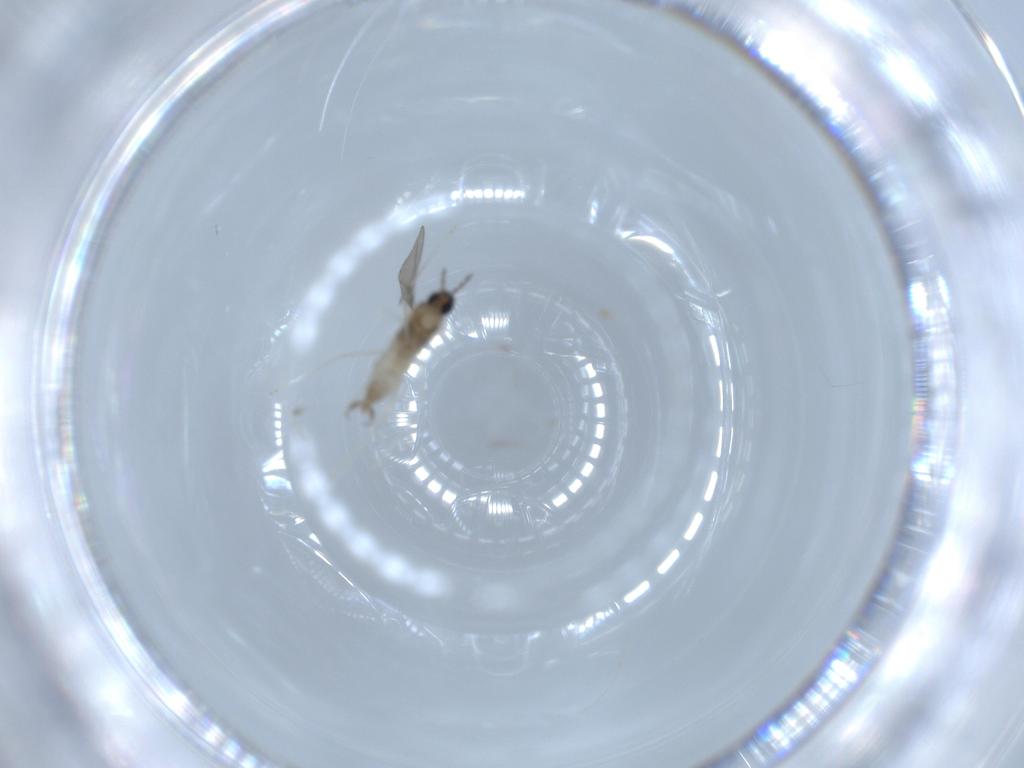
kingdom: Animalia
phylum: Arthropoda
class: Insecta
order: Diptera
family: Cecidomyiidae
